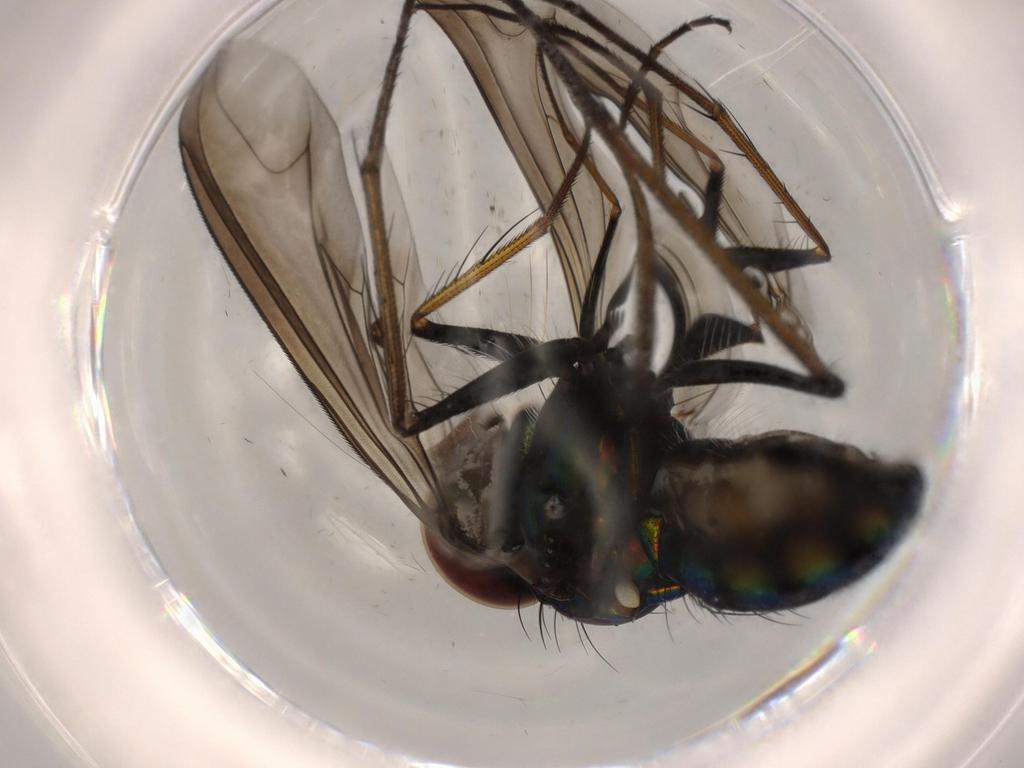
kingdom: Animalia
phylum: Arthropoda
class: Insecta
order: Diptera
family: Dolichopodidae
